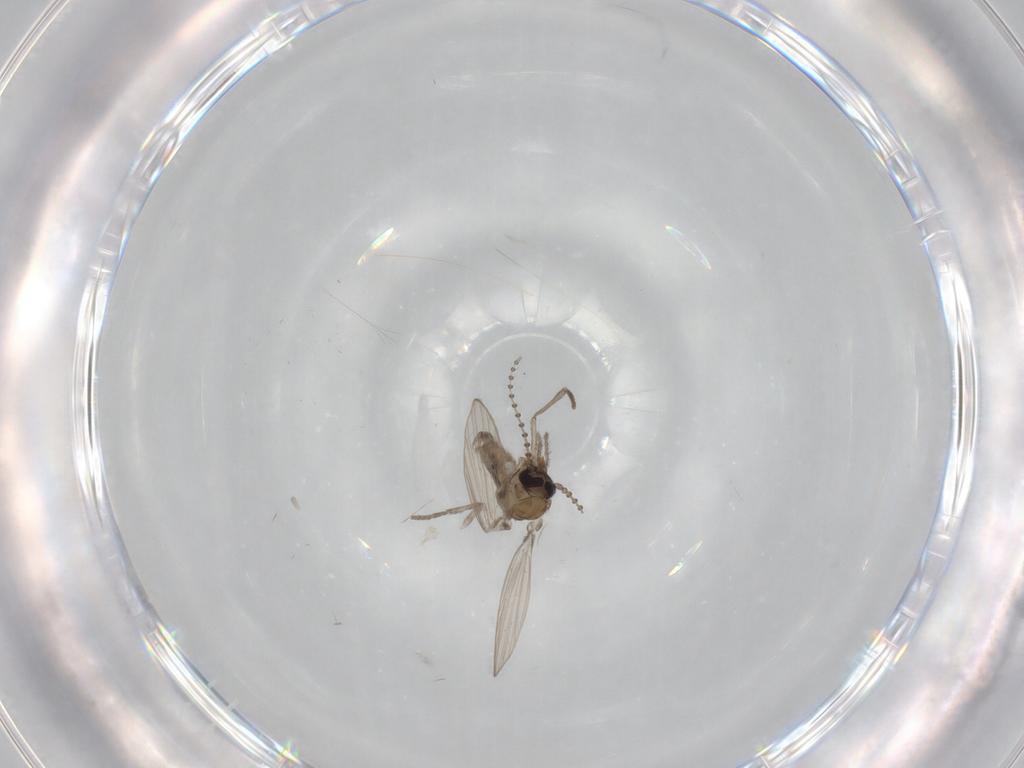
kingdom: Animalia
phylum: Arthropoda
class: Insecta
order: Diptera
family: Psychodidae
